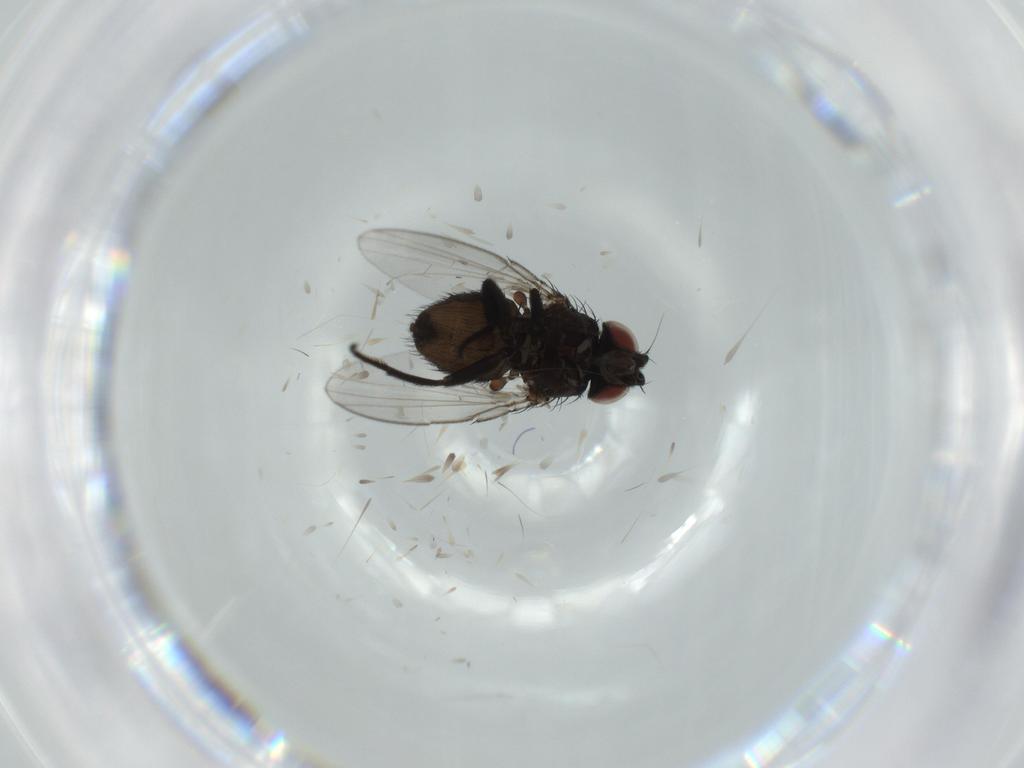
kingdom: Animalia
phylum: Arthropoda
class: Insecta
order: Diptera
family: Milichiidae
